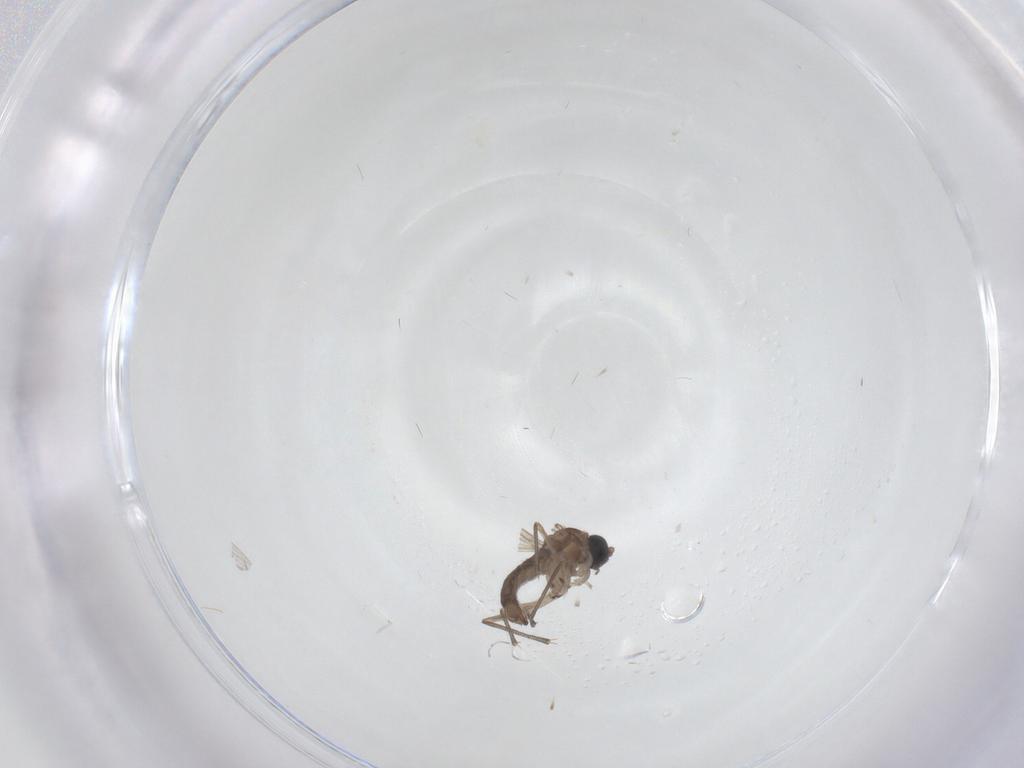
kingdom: Animalia
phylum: Arthropoda
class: Insecta
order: Diptera
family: Sciaridae
